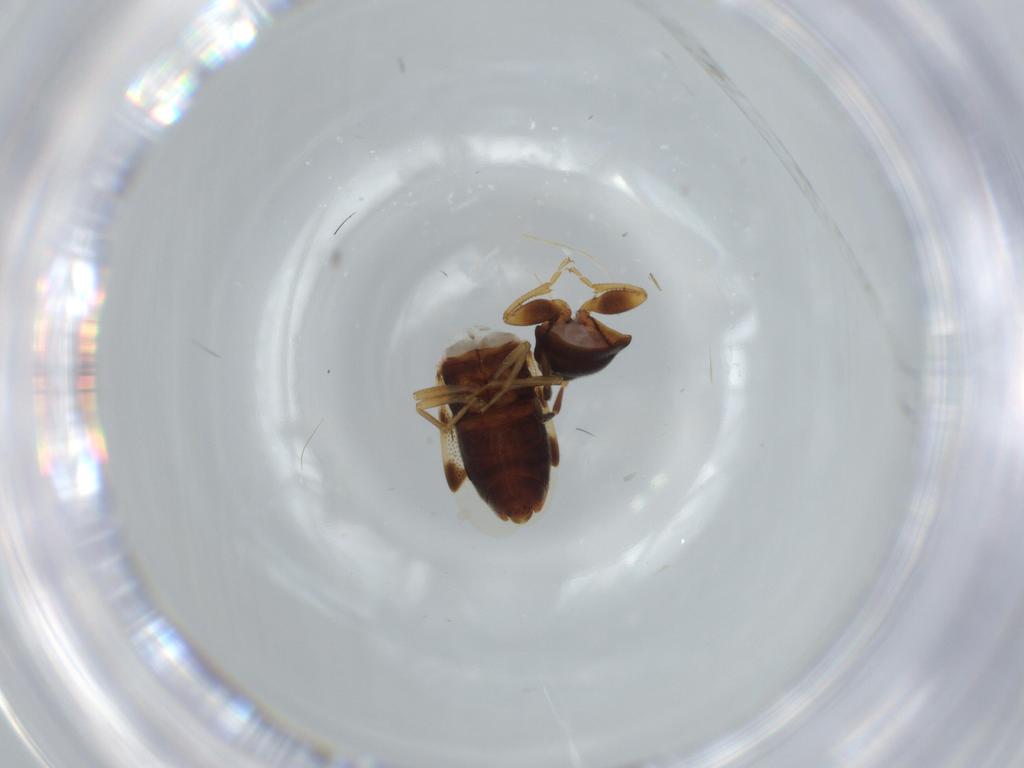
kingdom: Animalia
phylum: Arthropoda
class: Insecta
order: Hemiptera
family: Rhyparochromidae
